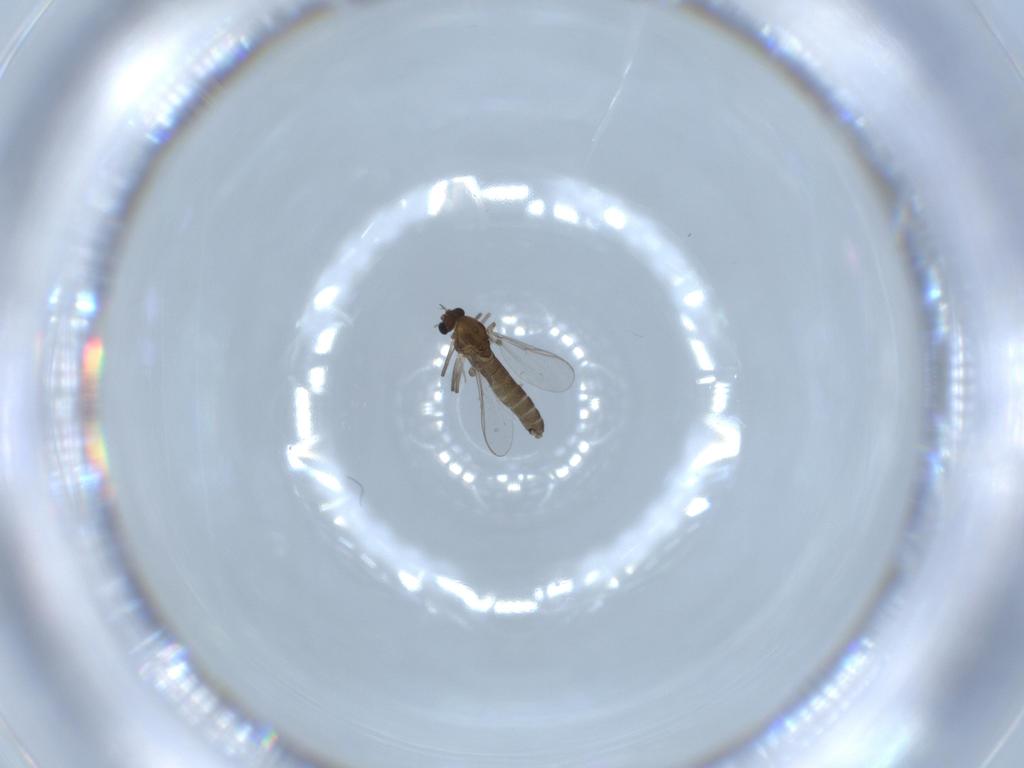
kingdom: Animalia
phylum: Arthropoda
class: Insecta
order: Diptera
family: Chironomidae
